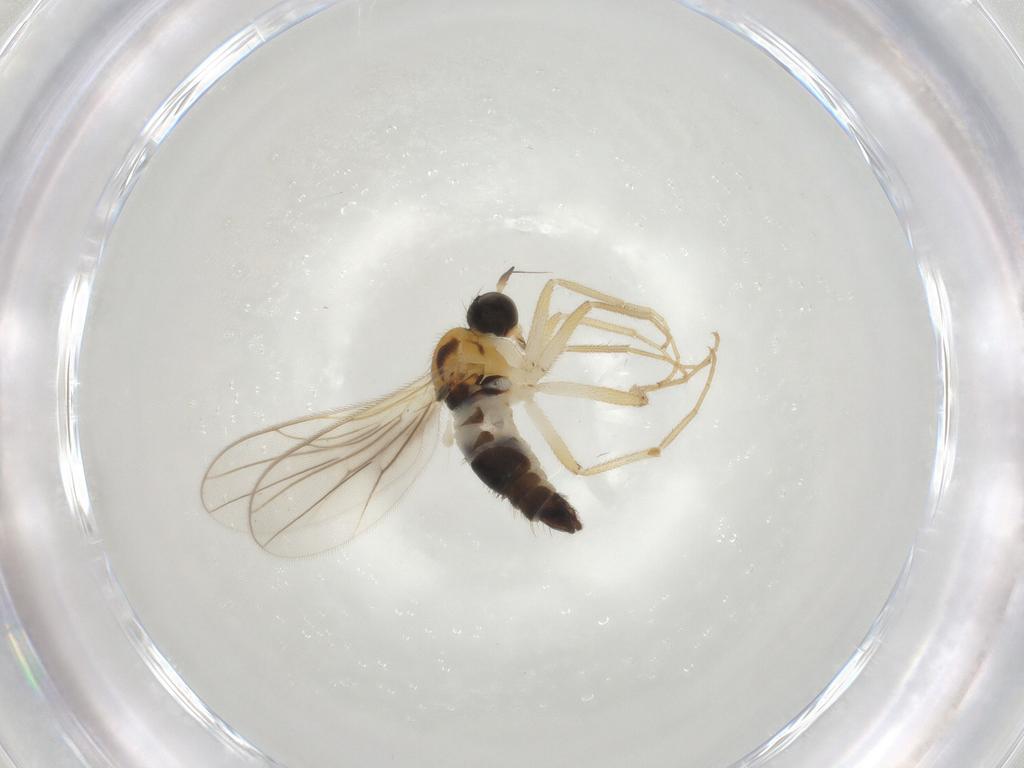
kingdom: Animalia
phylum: Arthropoda
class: Insecta
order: Diptera
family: Hybotidae
